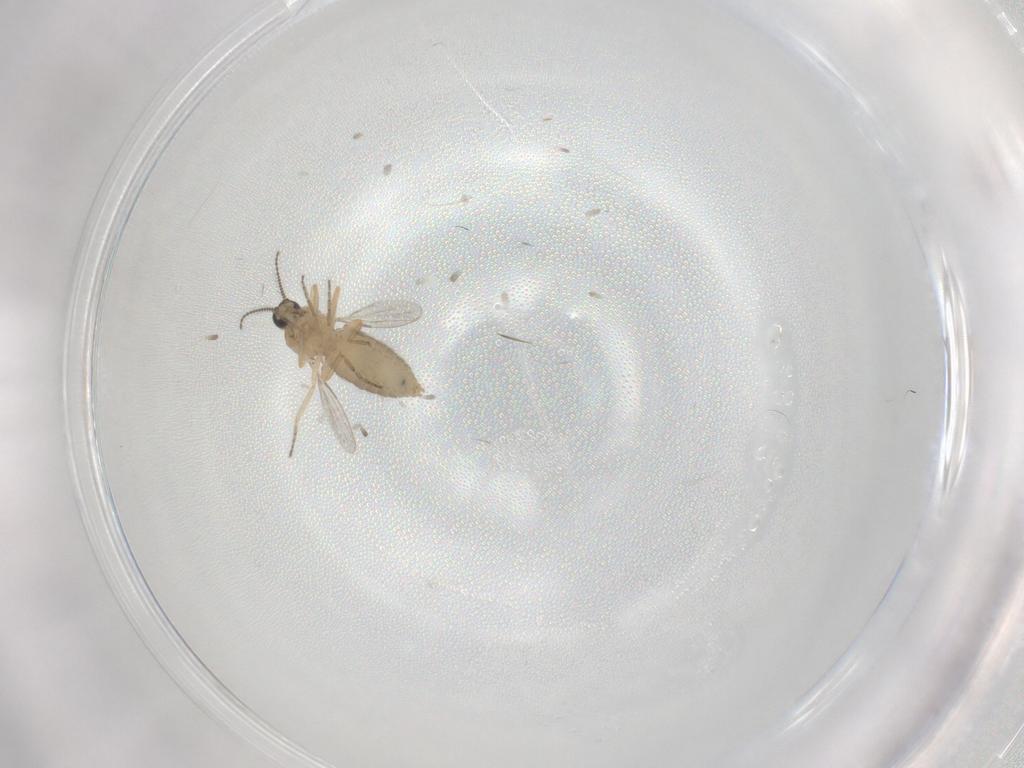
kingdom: Animalia
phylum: Arthropoda
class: Insecta
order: Diptera
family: Ceratopogonidae
